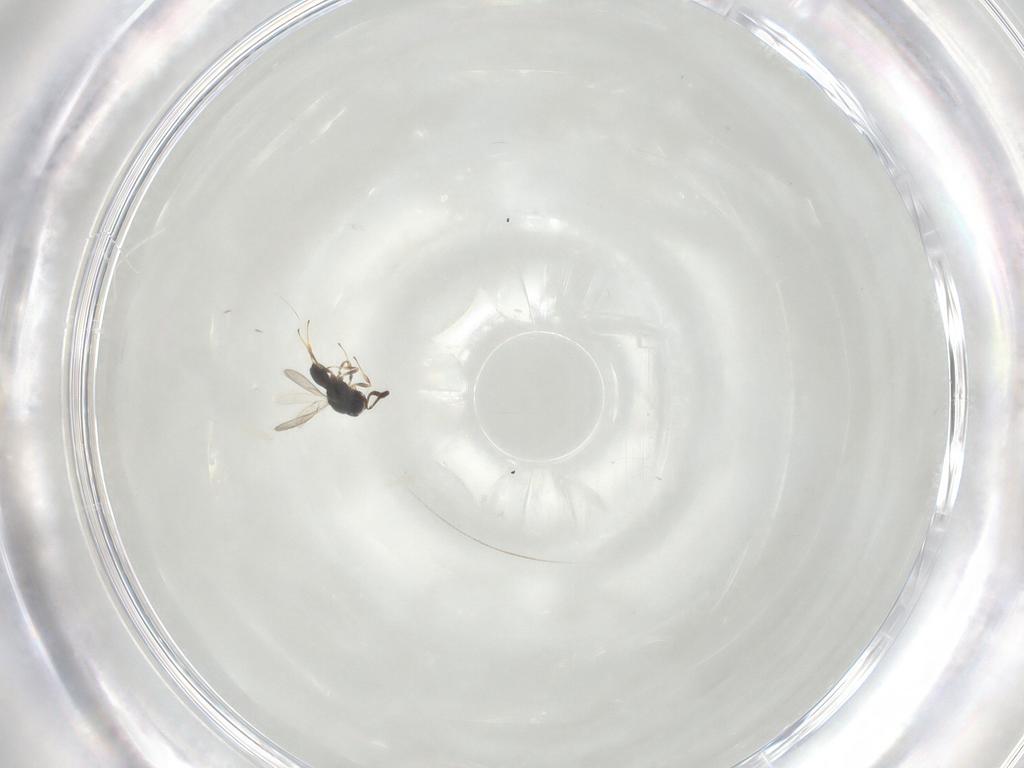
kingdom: Animalia
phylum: Arthropoda
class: Insecta
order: Hymenoptera
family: Scelionidae
